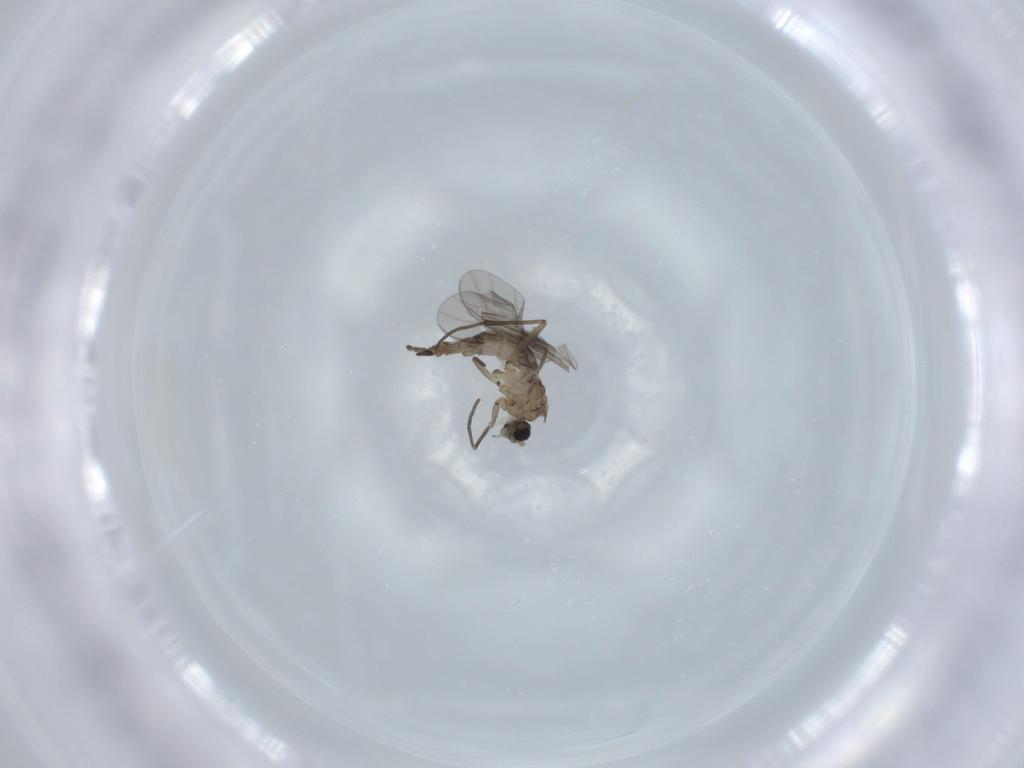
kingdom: Animalia
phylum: Arthropoda
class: Insecta
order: Diptera
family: Sciaridae
